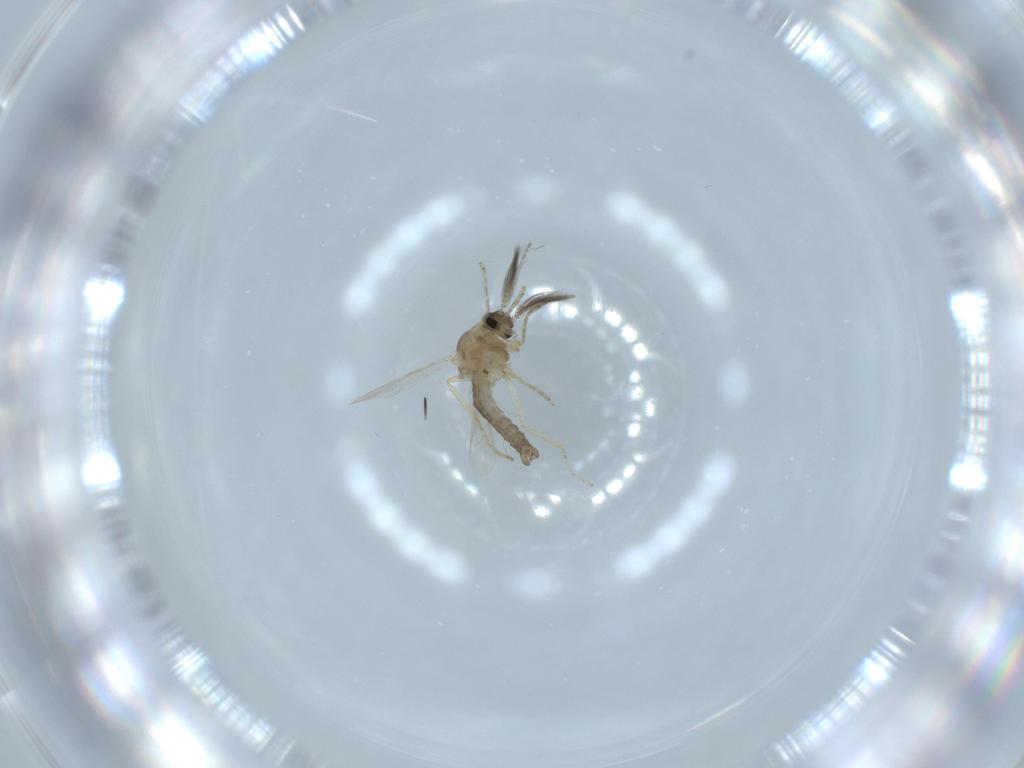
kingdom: Animalia
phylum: Arthropoda
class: Insecta
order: Diptera
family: Ceratopogonidae
